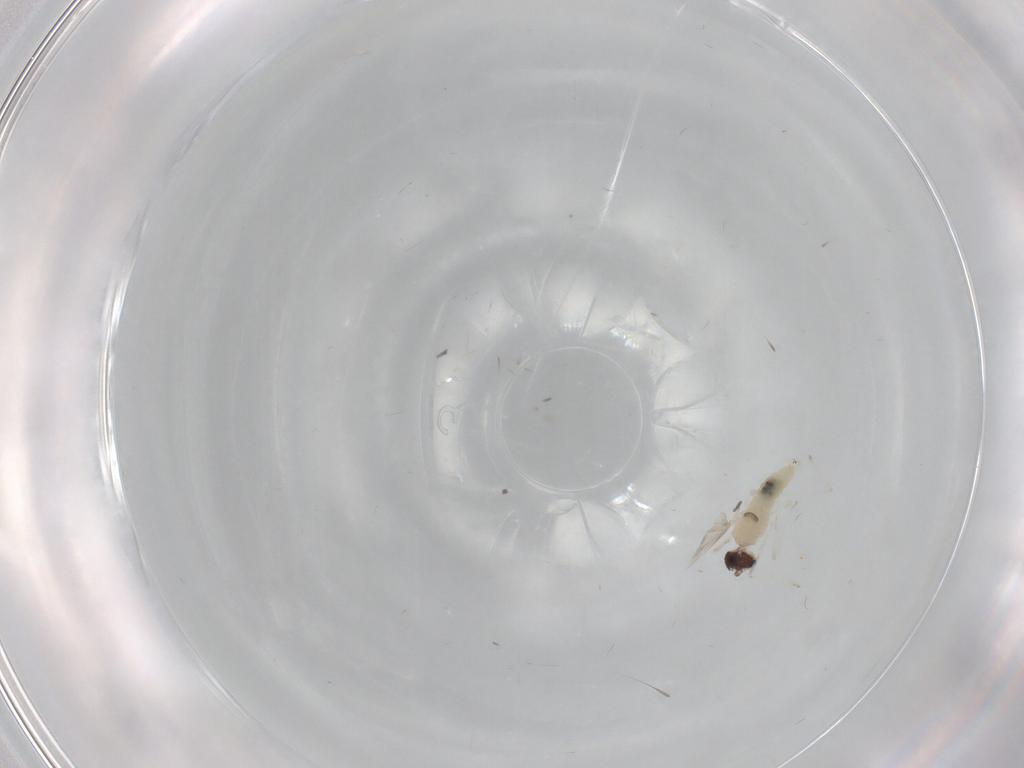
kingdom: Animalia
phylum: Arthropoda
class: Insecta
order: Diptera
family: Cecidomyiidae
